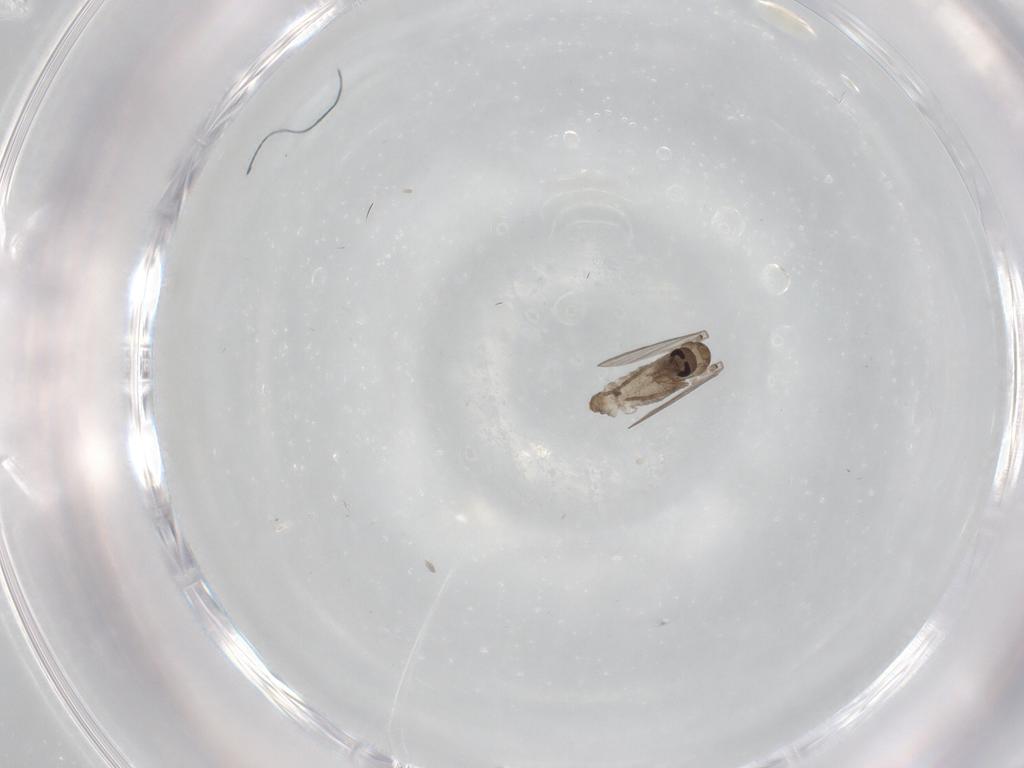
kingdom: Animalia
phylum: Arthropoda
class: Insecta
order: Diptera
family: Psychodidae
